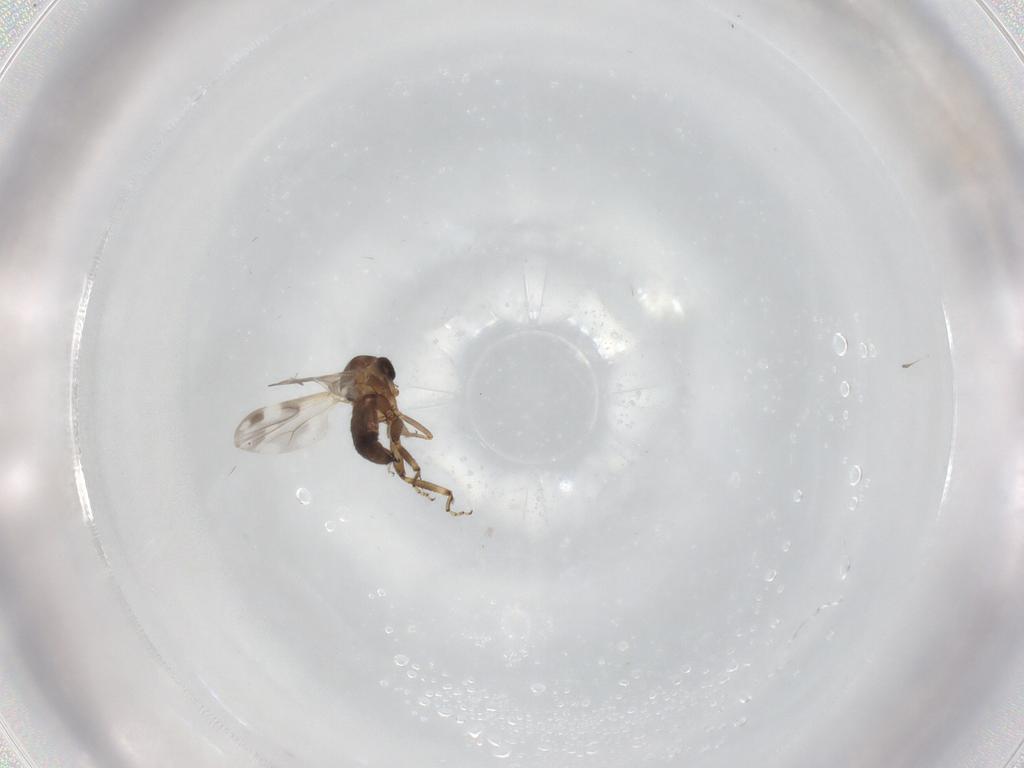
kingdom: Animalia
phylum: Arthropoda
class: Insecta
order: Diptera
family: Ceratopogonidae
